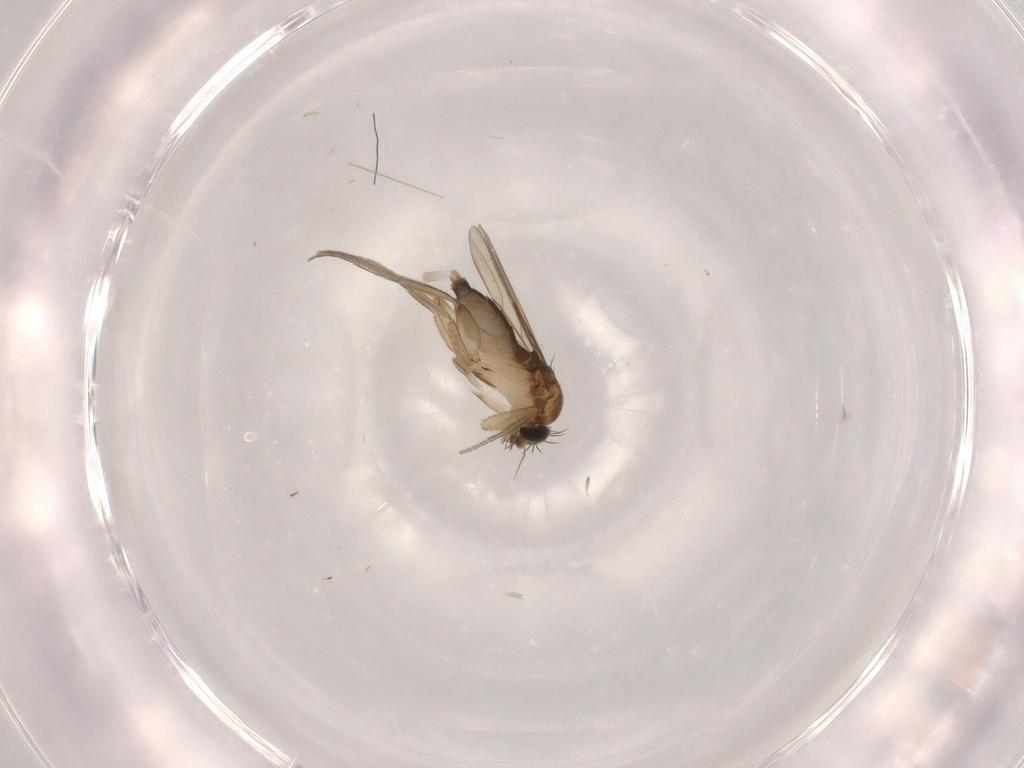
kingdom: Animalia
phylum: Arthropoda
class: Insecta
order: Diptera
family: Phoridae
